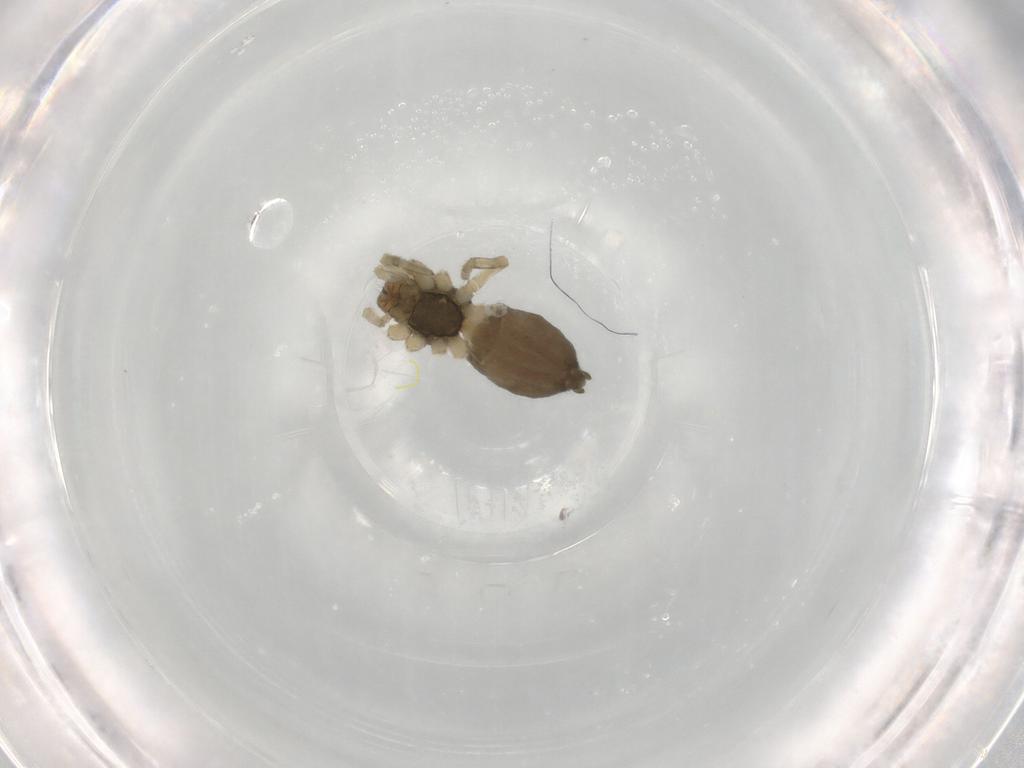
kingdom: Animalia
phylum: Arthropoda
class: Arachnida
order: Araneae
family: Trachelidae
